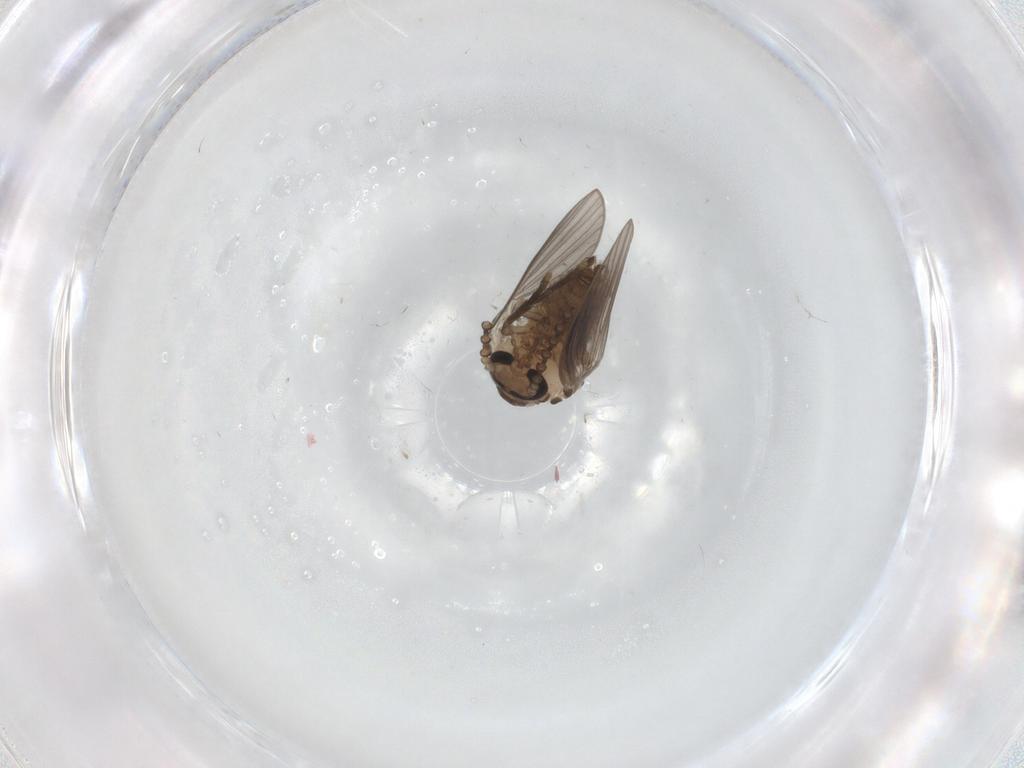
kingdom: Animalia
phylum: Arthropoda
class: Insecta
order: Diptera
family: Psychodidae
